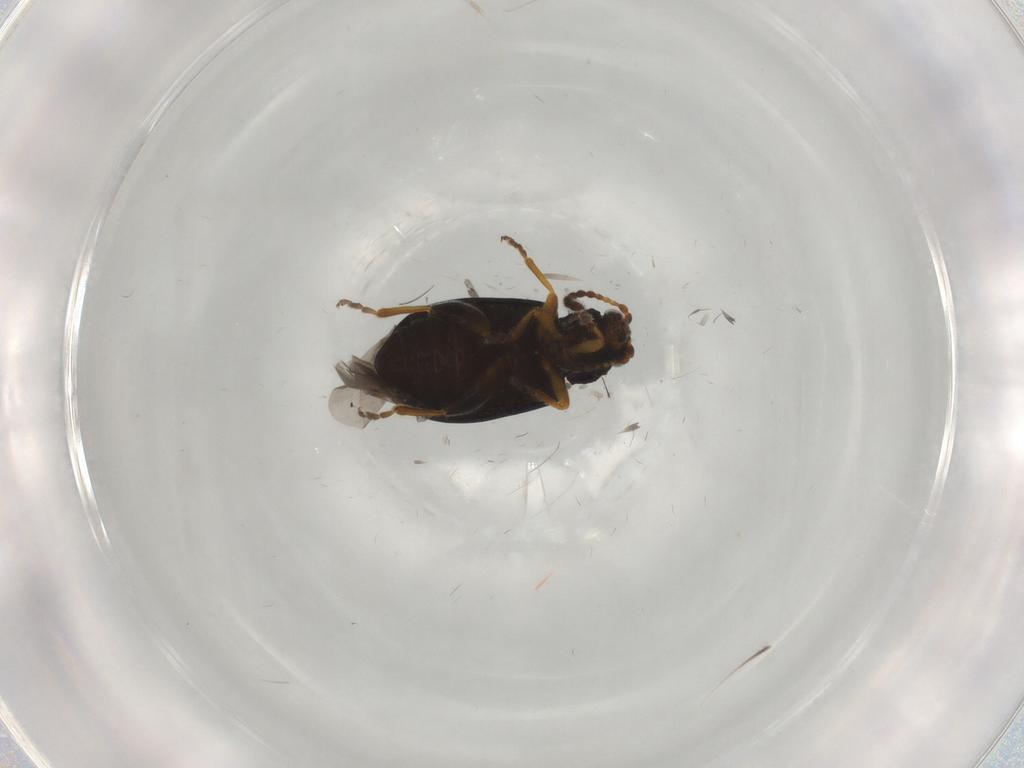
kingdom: Animalia
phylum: Arthropoda
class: Insecta
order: Coleoptera
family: Chrysomelidae
